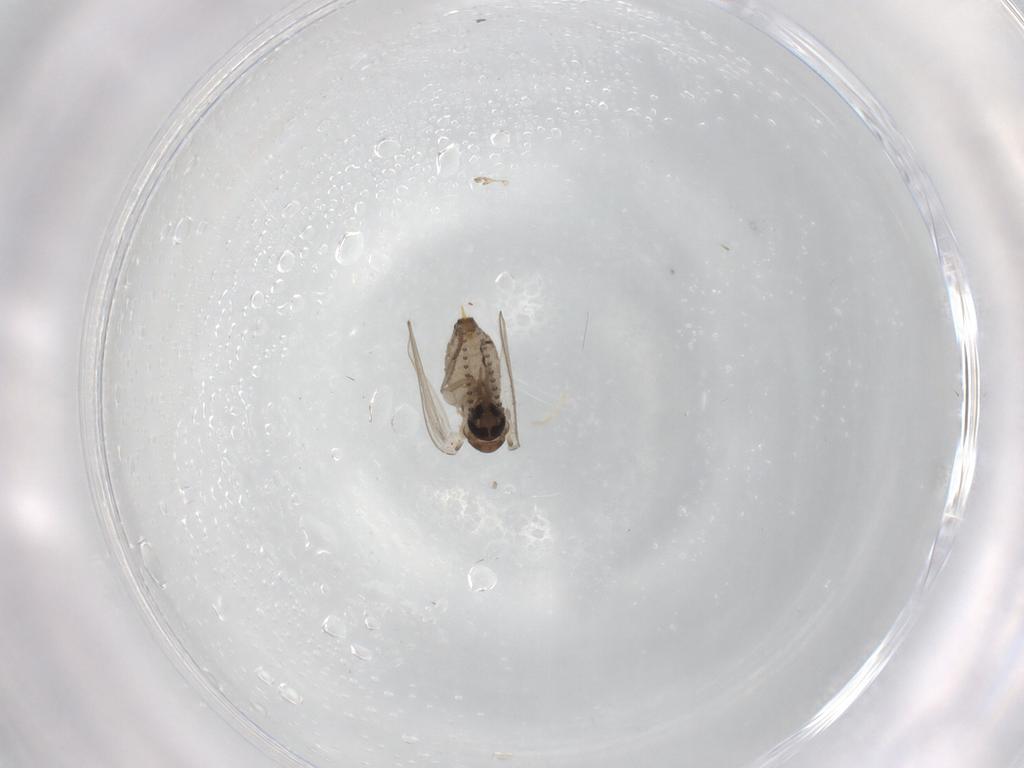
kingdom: Animalia
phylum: Arthropoda
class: Insecta
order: Diptera
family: Psychodidae
